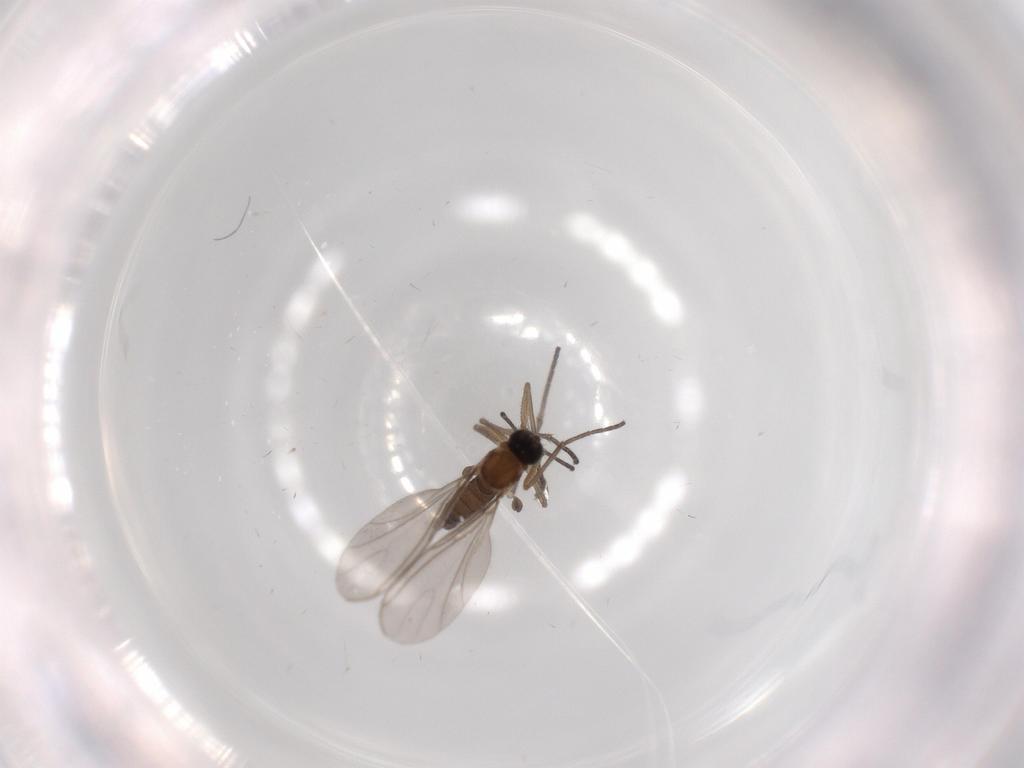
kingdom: Animalia
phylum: Arthropoda
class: Insecta
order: Diptera
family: Sciaridae
